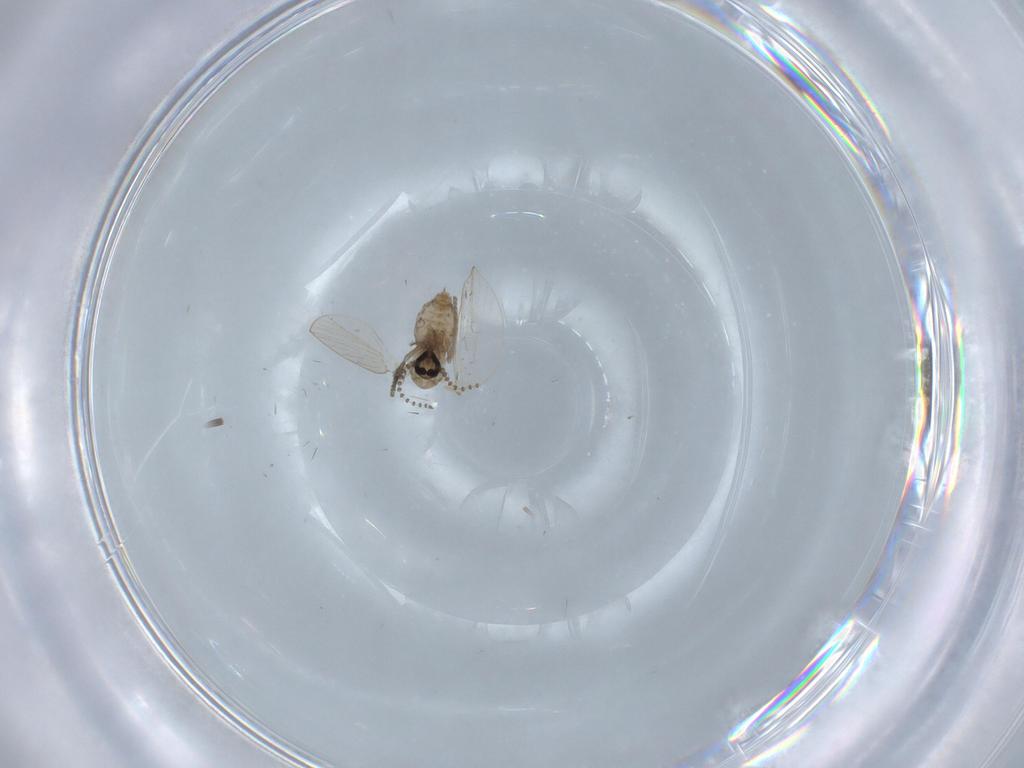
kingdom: Animalia
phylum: Arthropoda
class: Insecta
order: Diptera
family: Psychodidae
